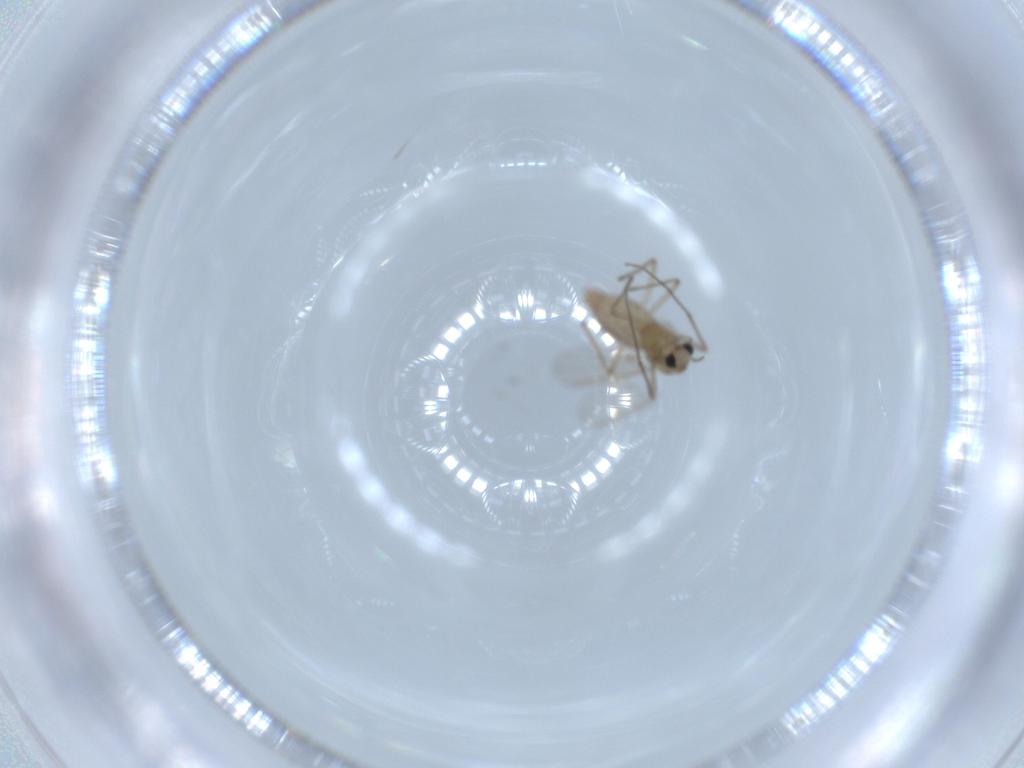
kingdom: Animalia
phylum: Arthropoda
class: Insecta
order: Diptera
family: Chironomidae
